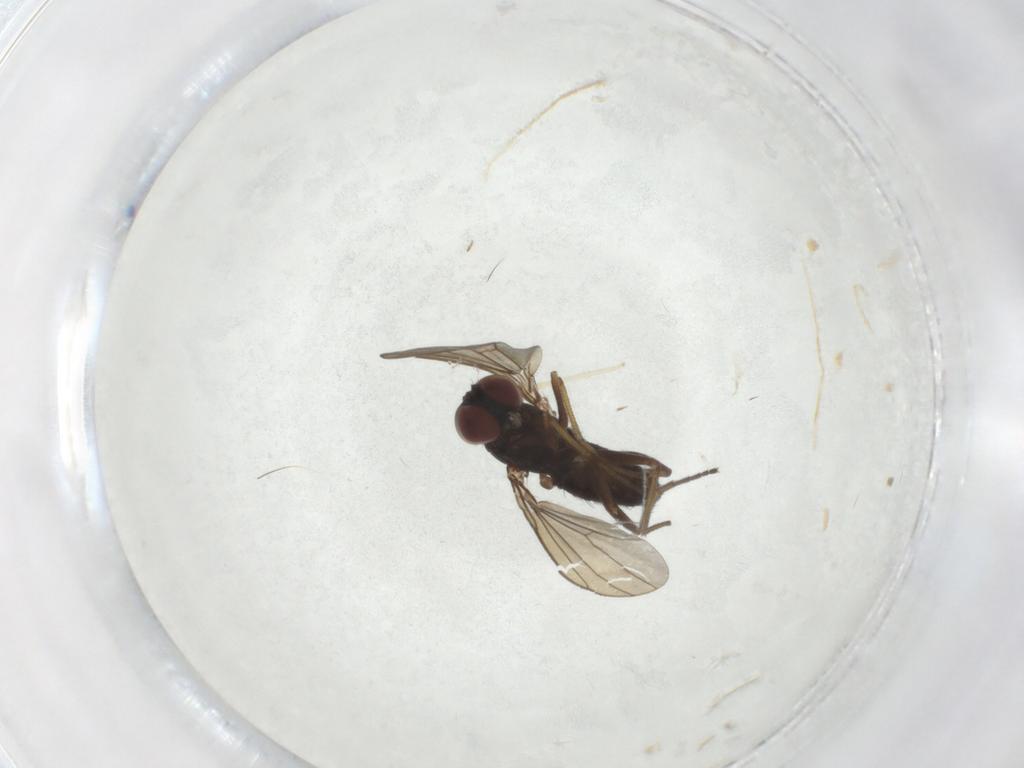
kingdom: Animalia
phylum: Arthropoda
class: Insecta
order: Diptera
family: Dolichopodidae
